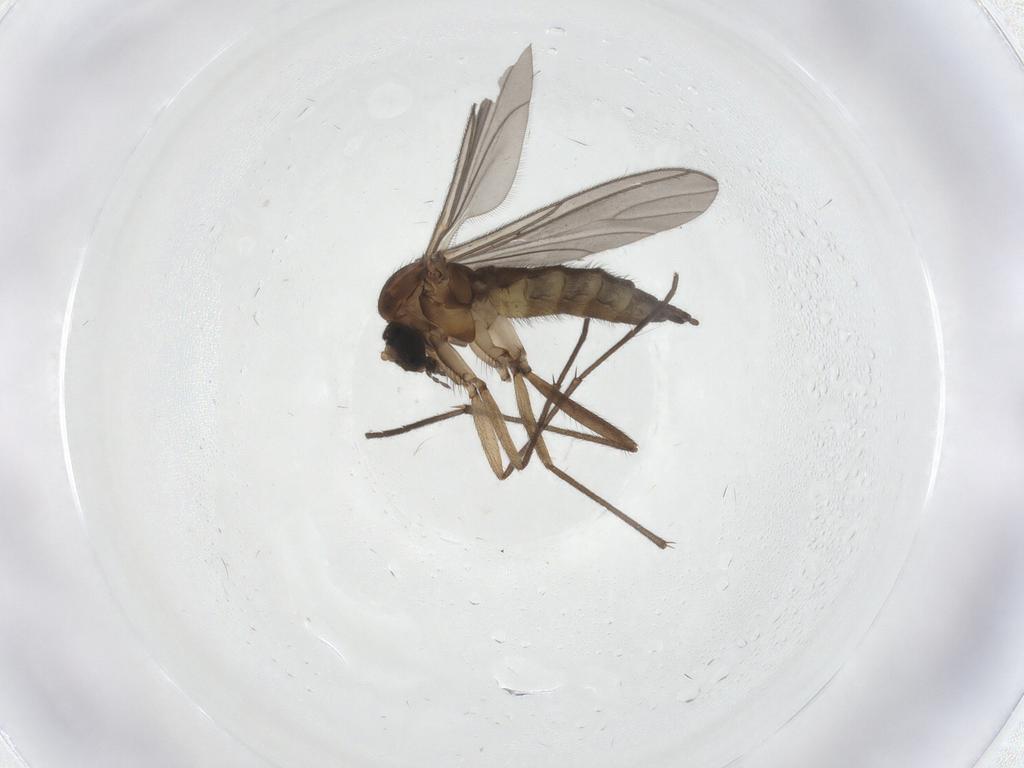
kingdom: Animalia
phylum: Arthropoda
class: Insecta
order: Diptera
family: Sciaridae
